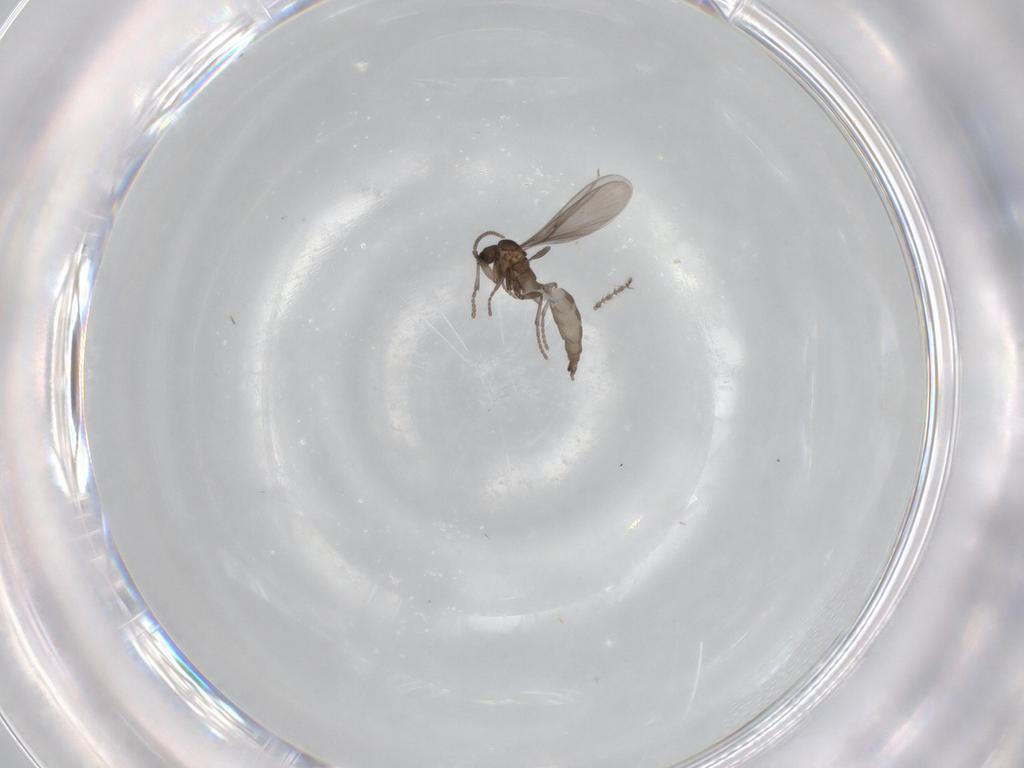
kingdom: Animalia
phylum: Arthropoda
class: Insecta
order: Diptera
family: Cecidomyiidae
